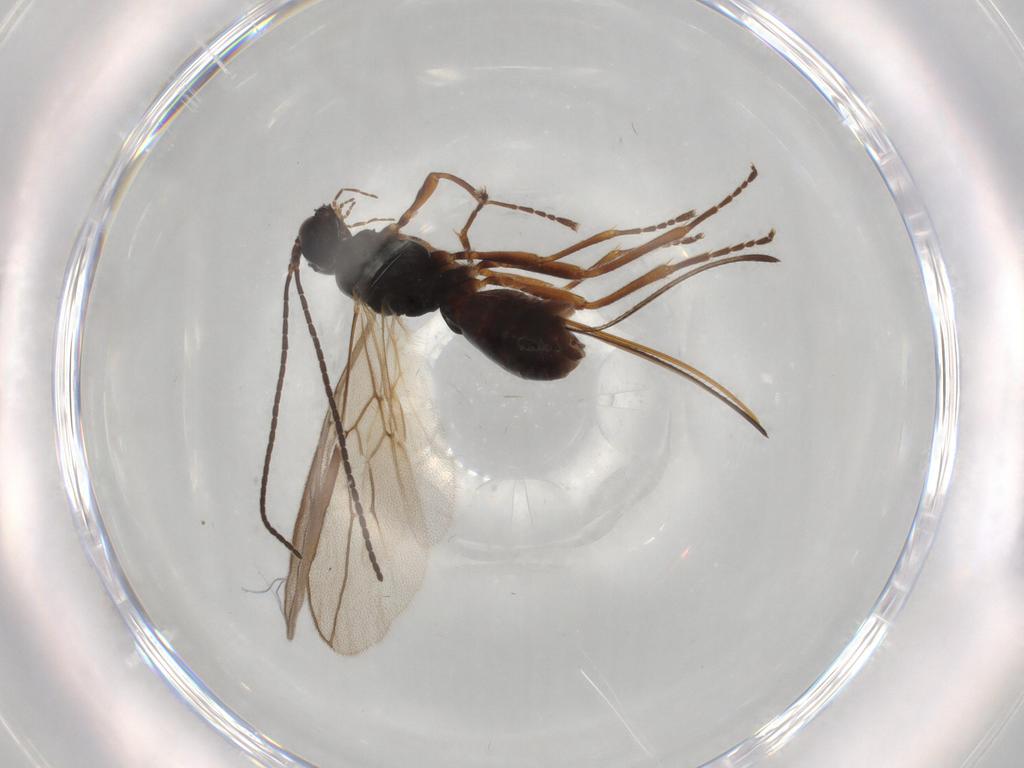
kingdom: Animalia
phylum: Arthropoda
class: Insecta
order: Hymenoptera
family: Braconidae
